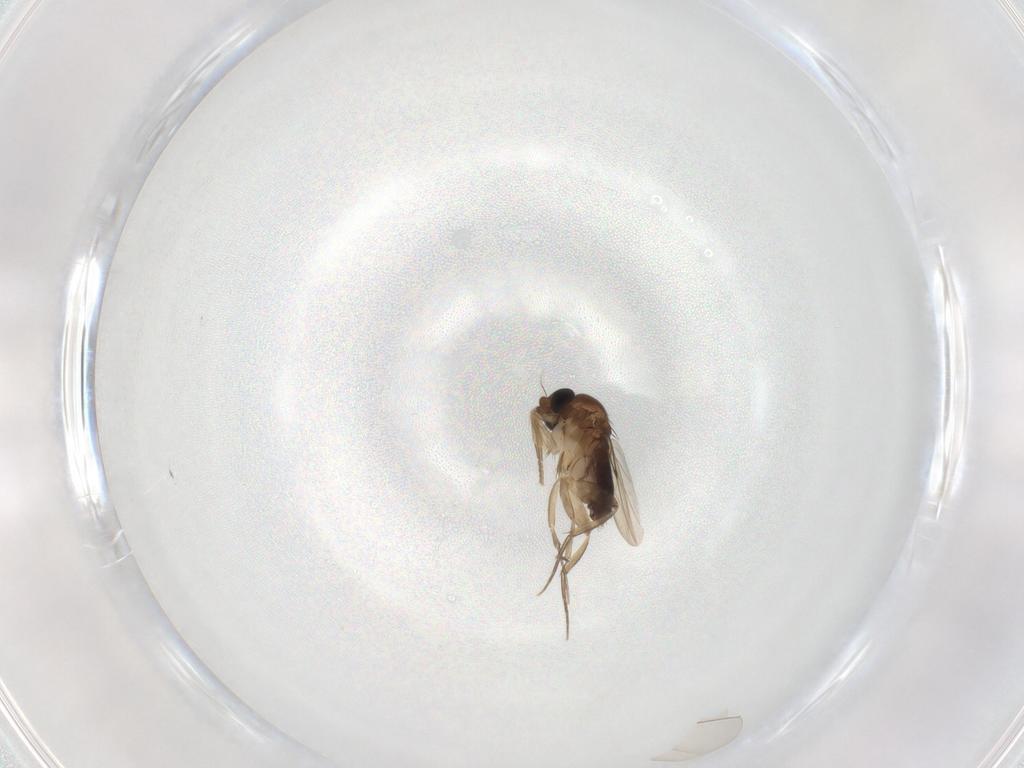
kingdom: Animalia
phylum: Arthropoda
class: Insecta
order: Diptera
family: Phoridae
